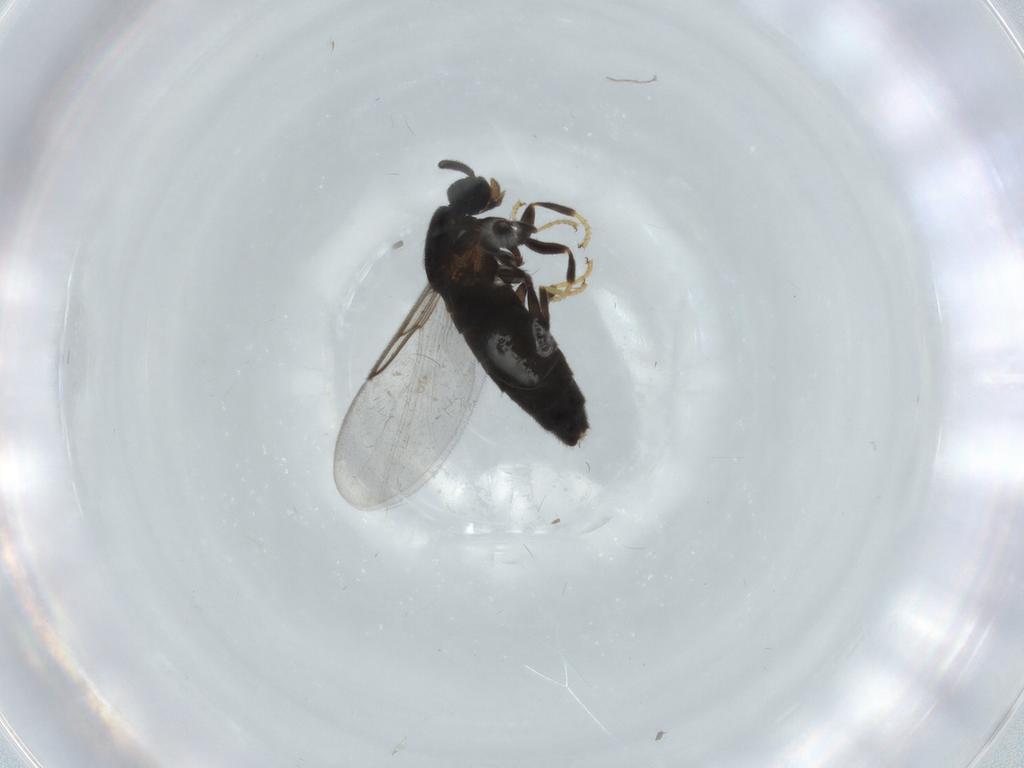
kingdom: Animalia
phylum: Arthropoda
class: Insecta
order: Diptera
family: Scatopsidae
